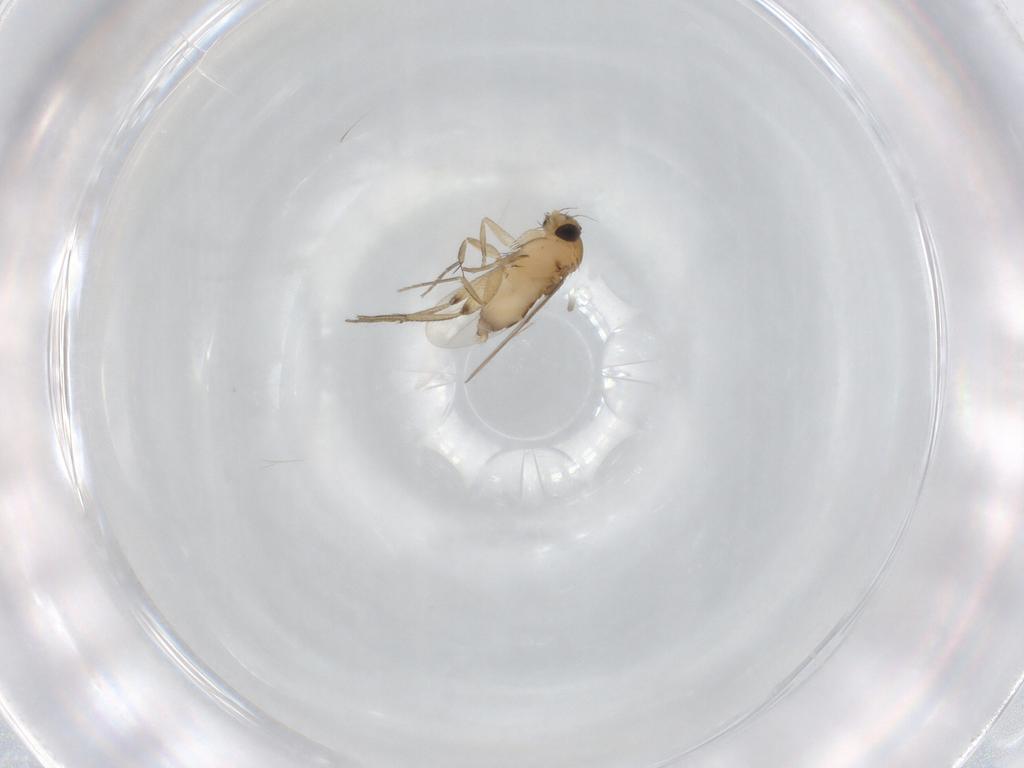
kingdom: Animalia
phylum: Arthropoda
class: Insecta
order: Diptera
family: Phoridae
